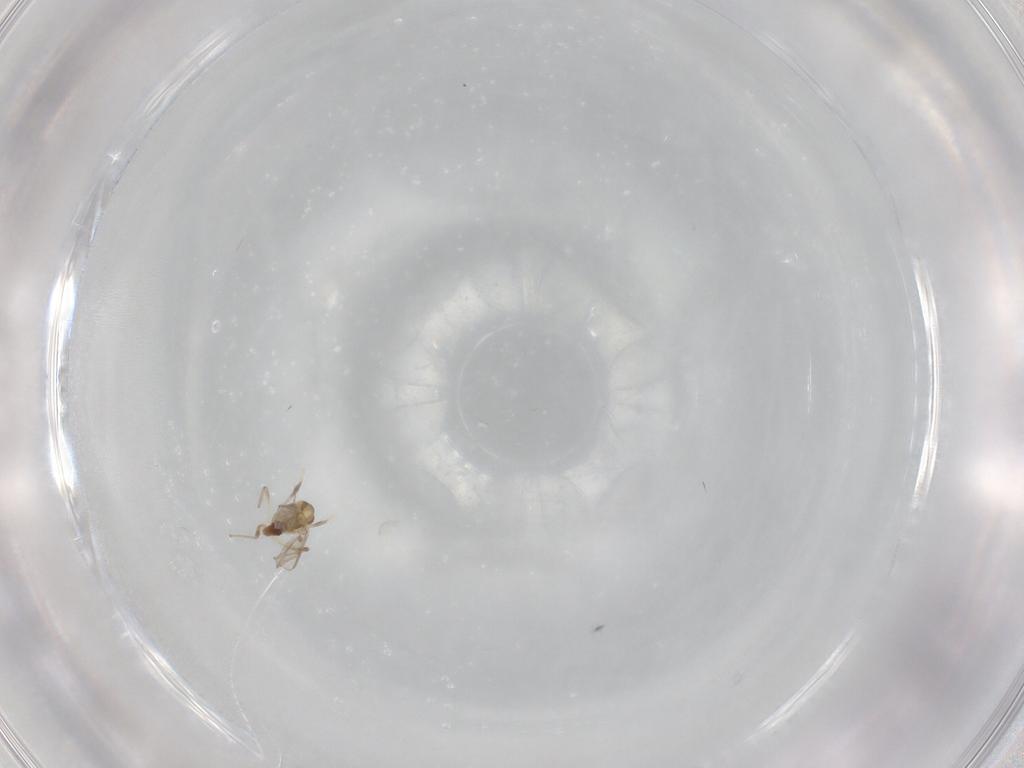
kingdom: Animalia
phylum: Arthropoda
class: Insecta
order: Diptera
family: Chironomidae
